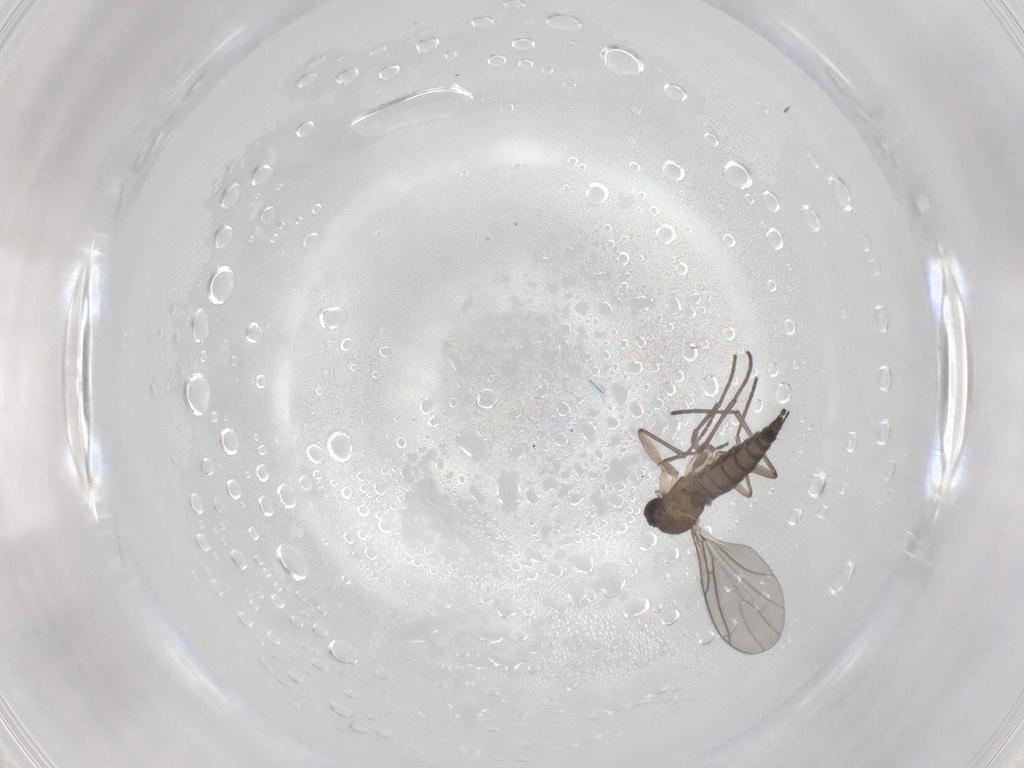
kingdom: Animalia
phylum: Arthropoda
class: Insecta
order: Diptera
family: Sciaridae
